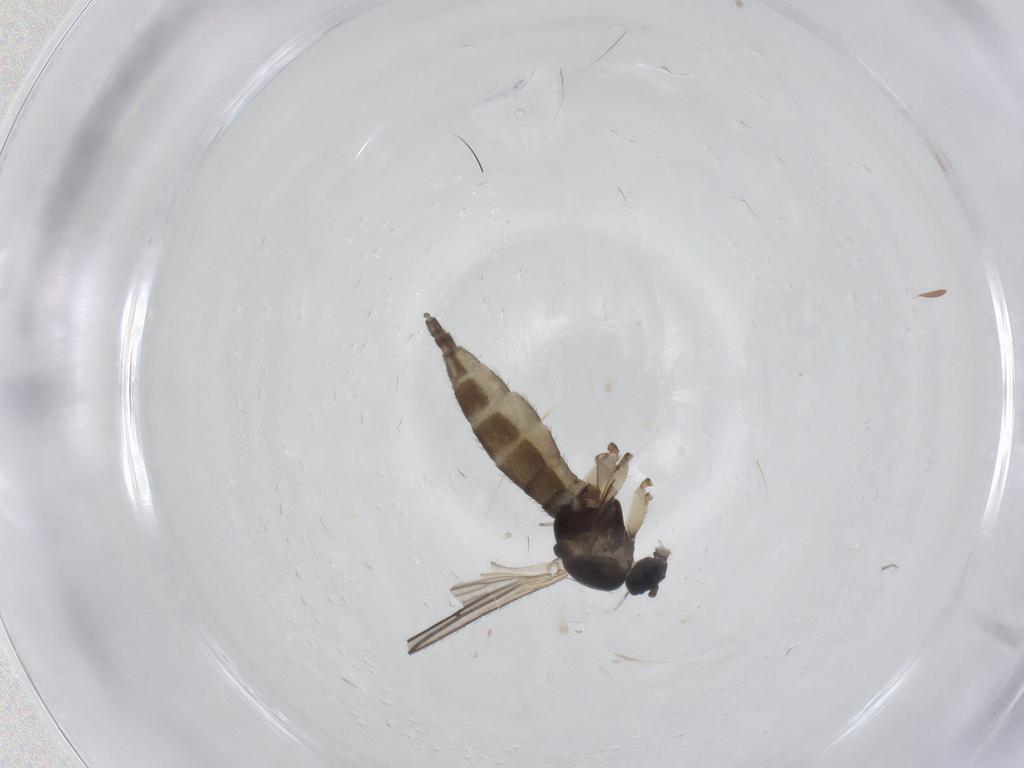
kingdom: Animalia
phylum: Arthropoda
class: Insecta
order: Diptera
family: Sciaridae
